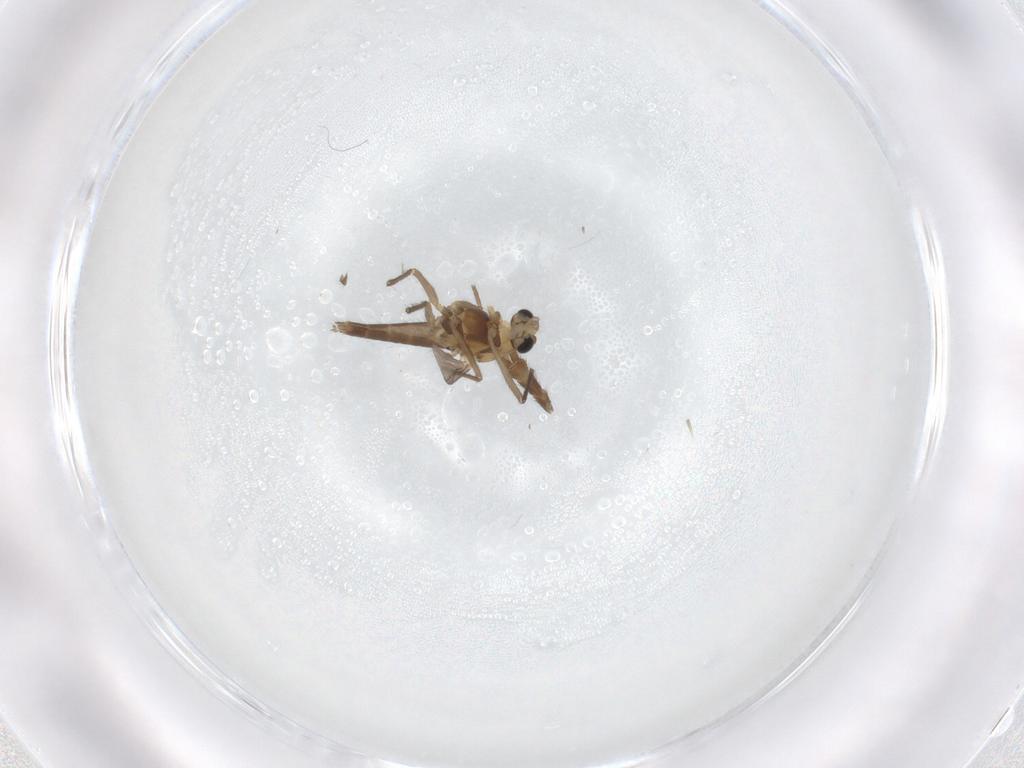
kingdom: Animalia
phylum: Arthropoda
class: Insecta
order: Diptera
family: Chironomidae
